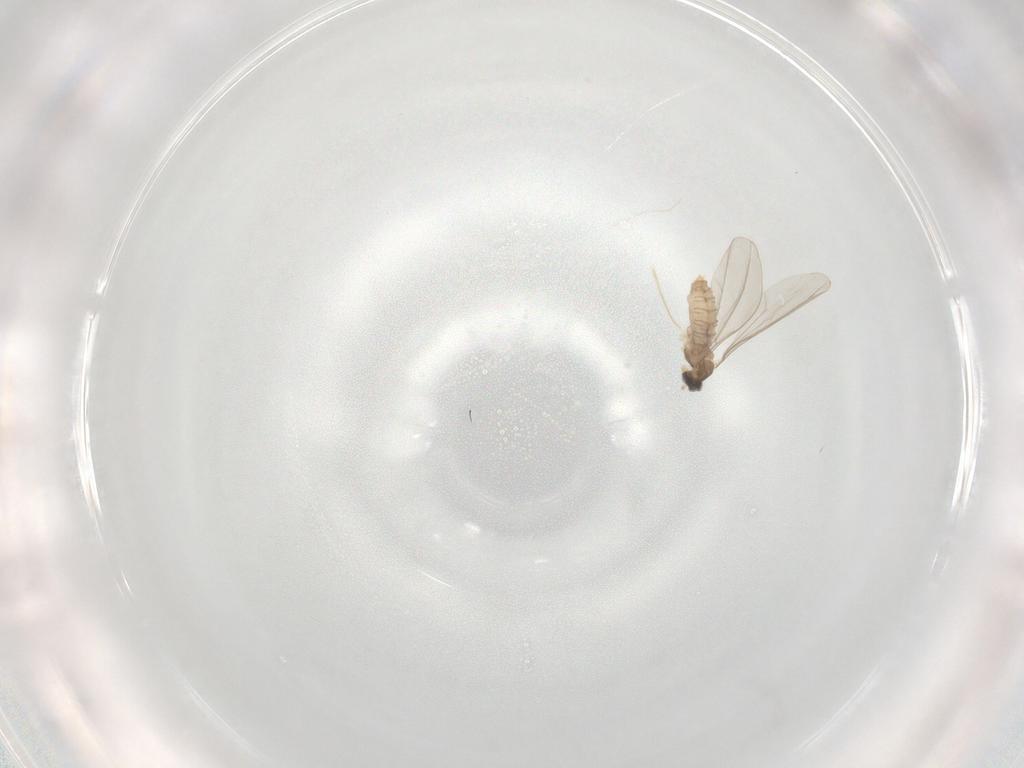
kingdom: Animalia
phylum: Arthropoda
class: Insecta
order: Diptera
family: Cecidomyiidae
